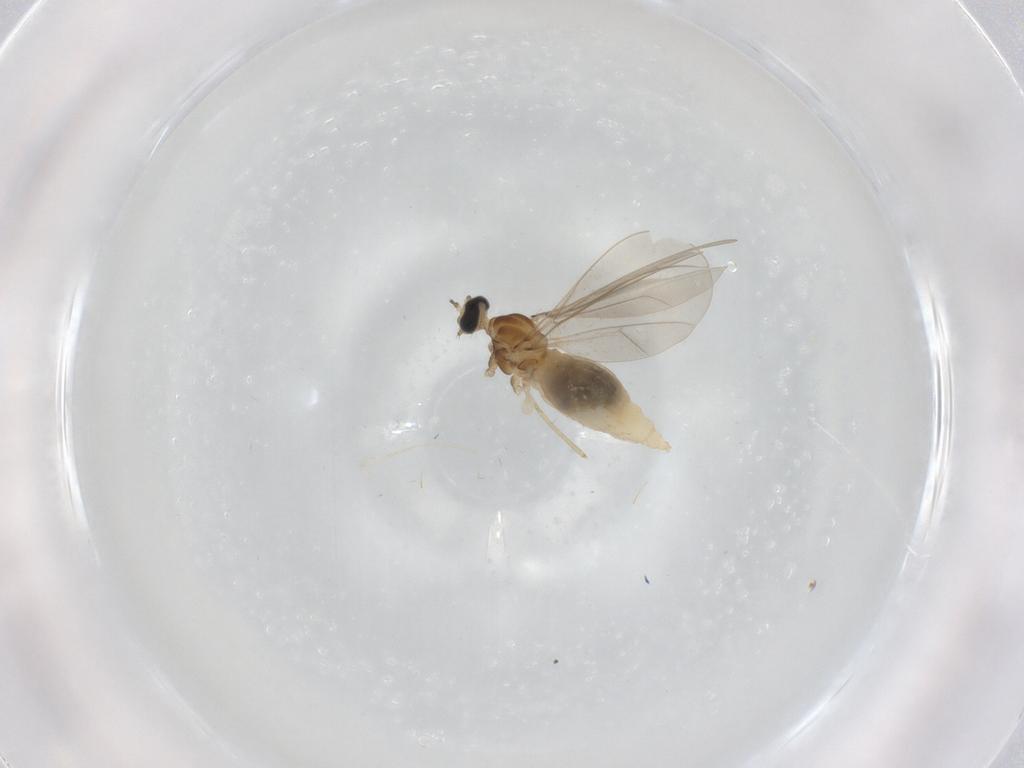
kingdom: Animalia
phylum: Arthropoda
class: Insecta
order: Diptera
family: Cecidomyiidae
